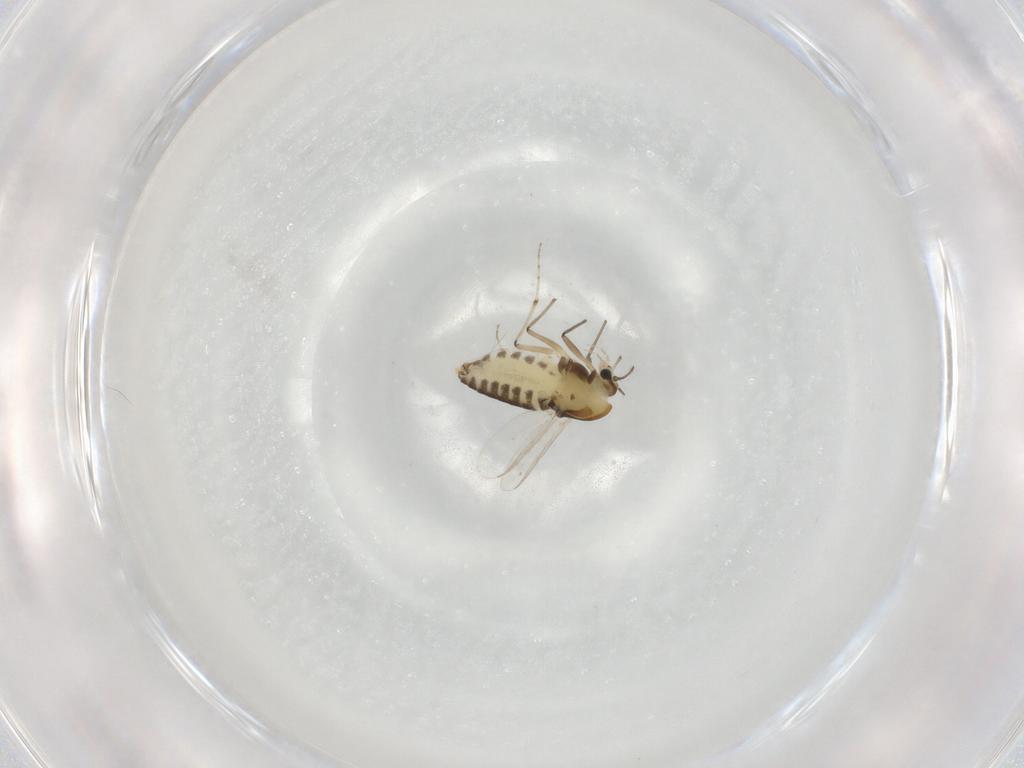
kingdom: Animalia
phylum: Arthropoda
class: Insecta
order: Diptera
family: Chironomidae
